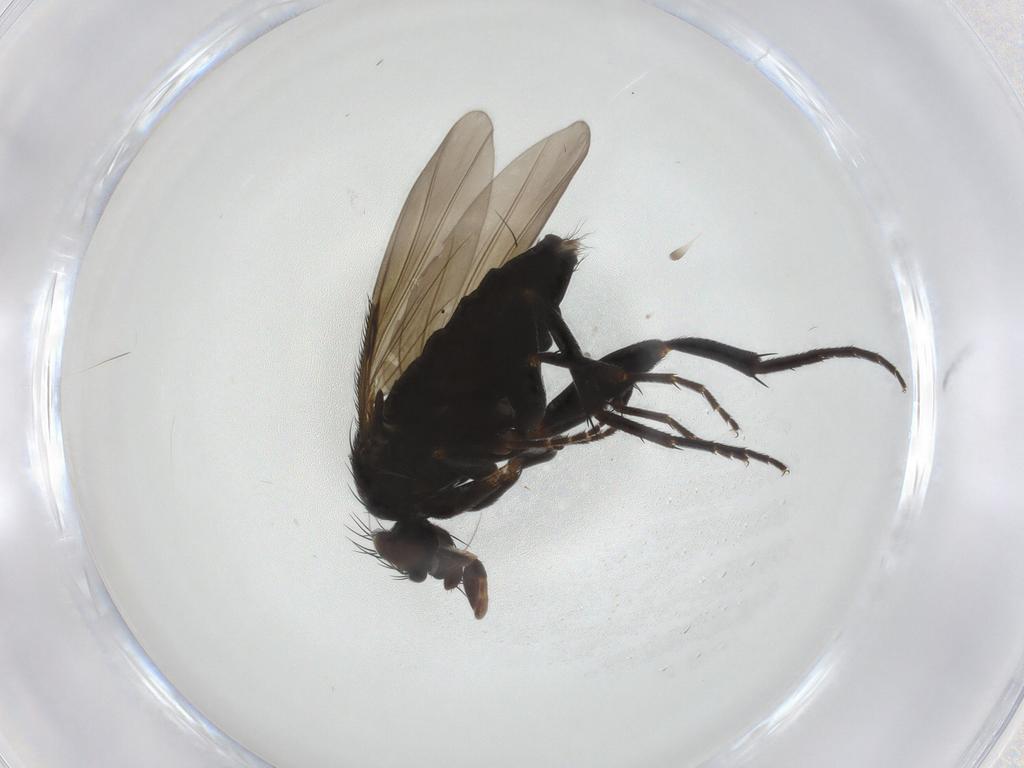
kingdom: Animalia
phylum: Arthropoda
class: Insecta
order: Diptera
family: Phoridae
